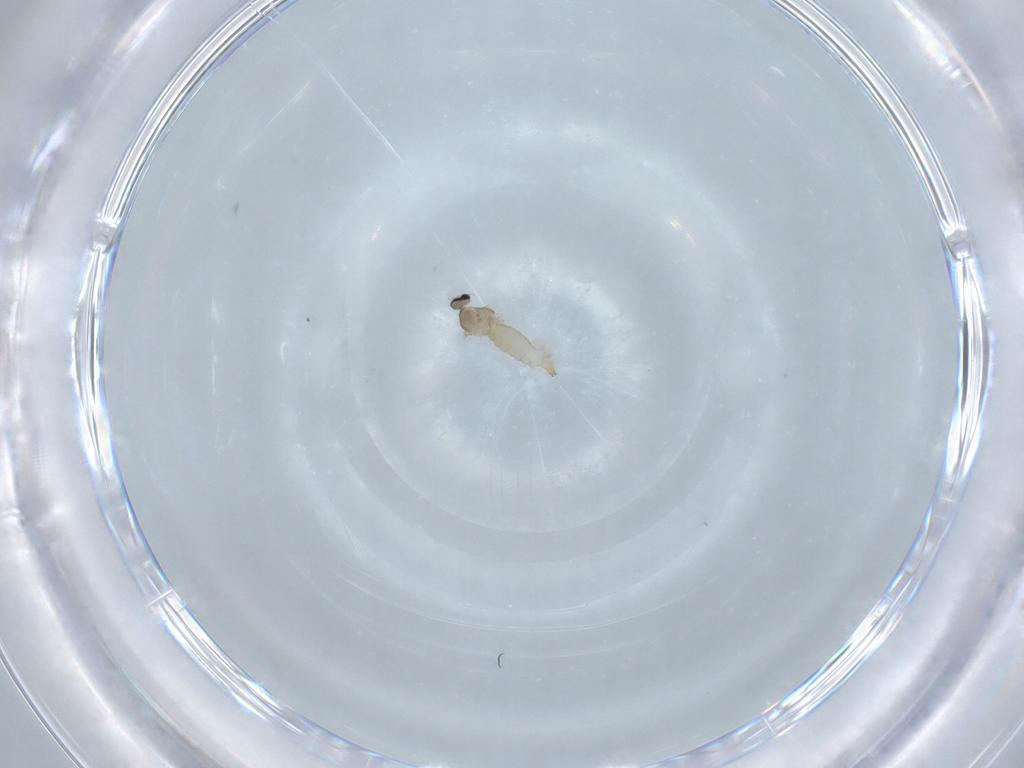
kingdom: Animalia
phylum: Arthropoda
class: Insecta
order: Diptera
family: Cecidomyiidae
